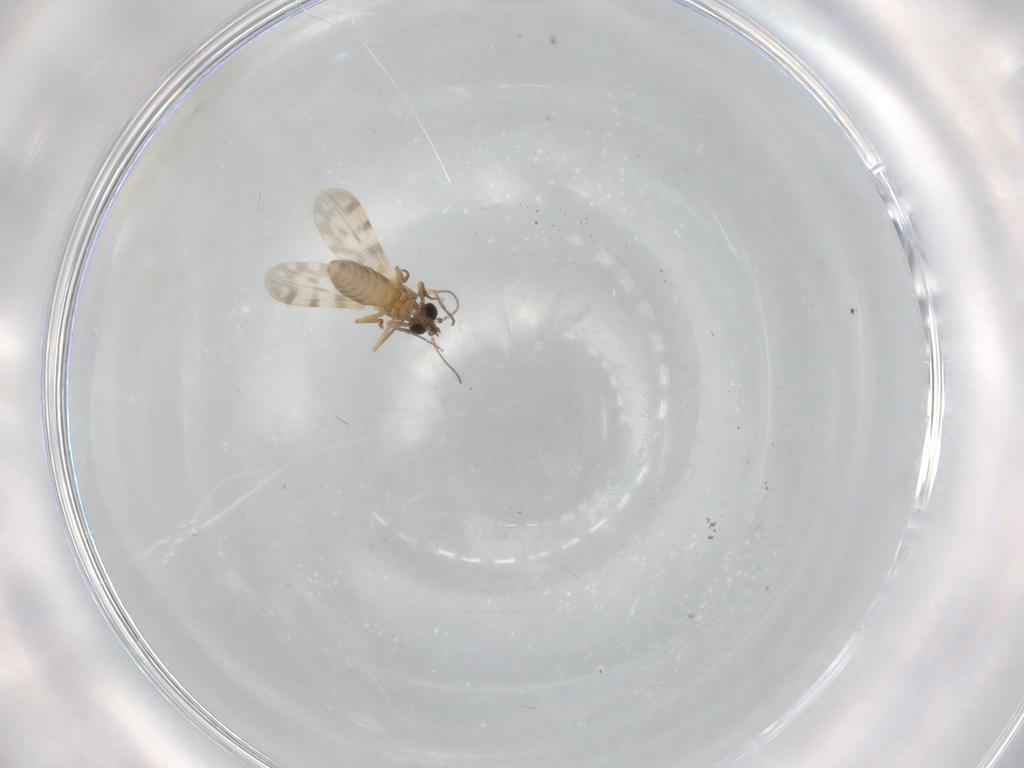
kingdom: Animalia
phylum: Arthropoda
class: Insecta
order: Diptera
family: Ceratopogonidae
